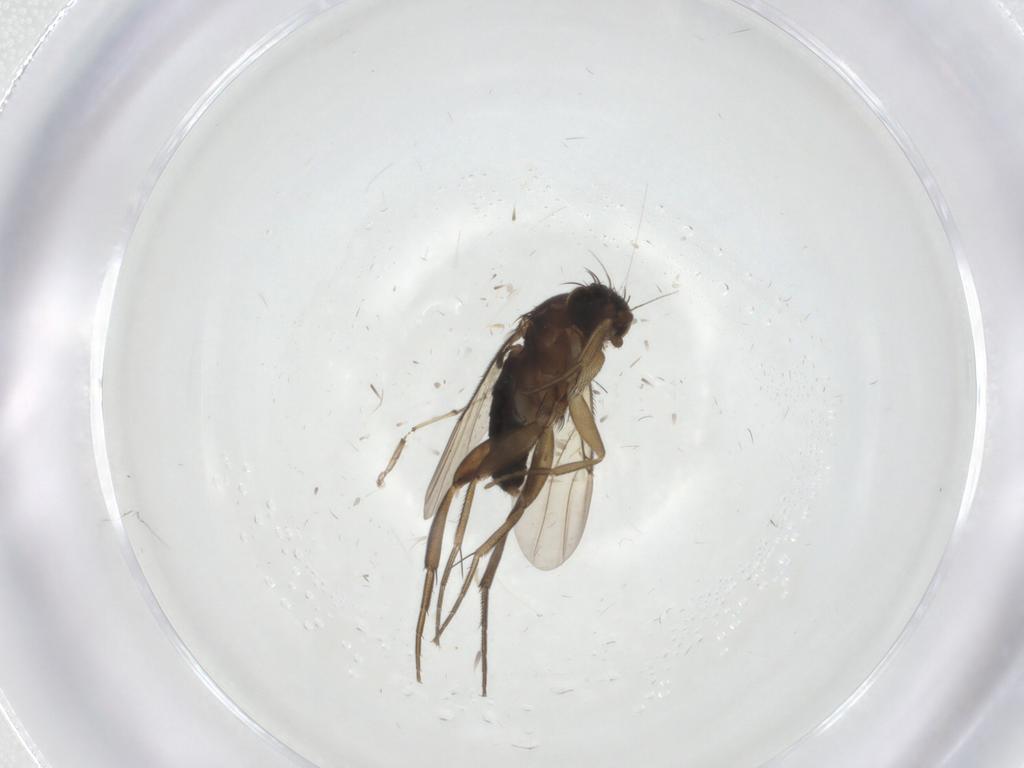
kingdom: Animalia
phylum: Arthropoda
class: Insecta
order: Diptera
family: Phoridae
